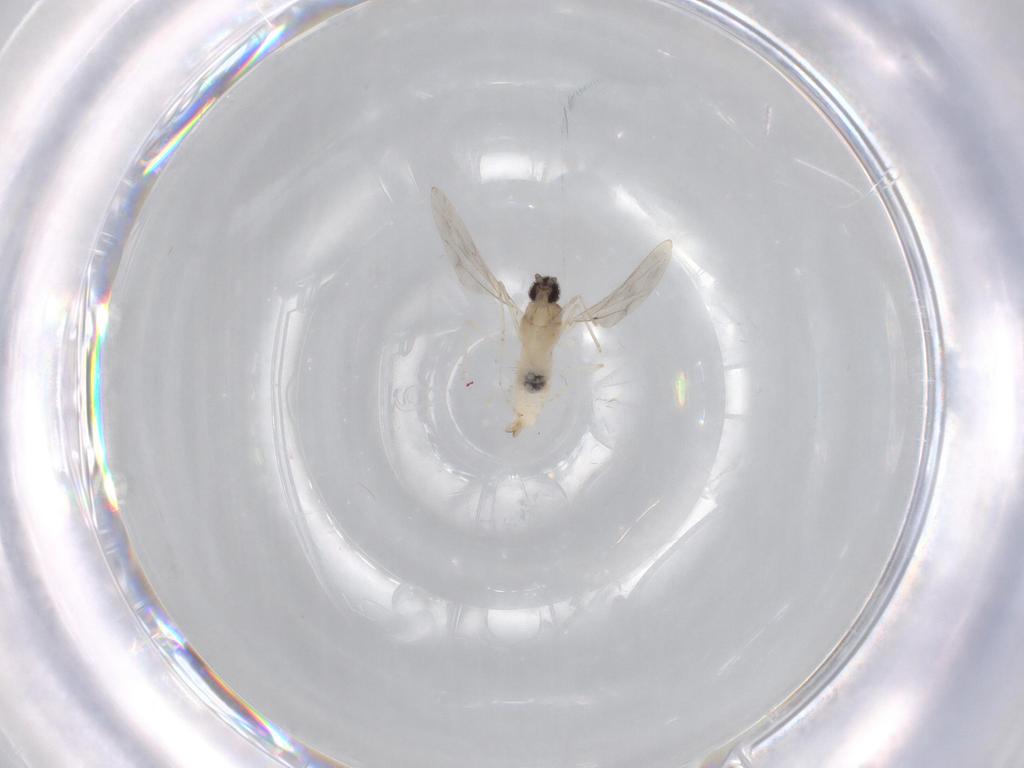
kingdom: Animalia
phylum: Arthropoda
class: Insecta
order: Diptera
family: Cecidomyiidae
